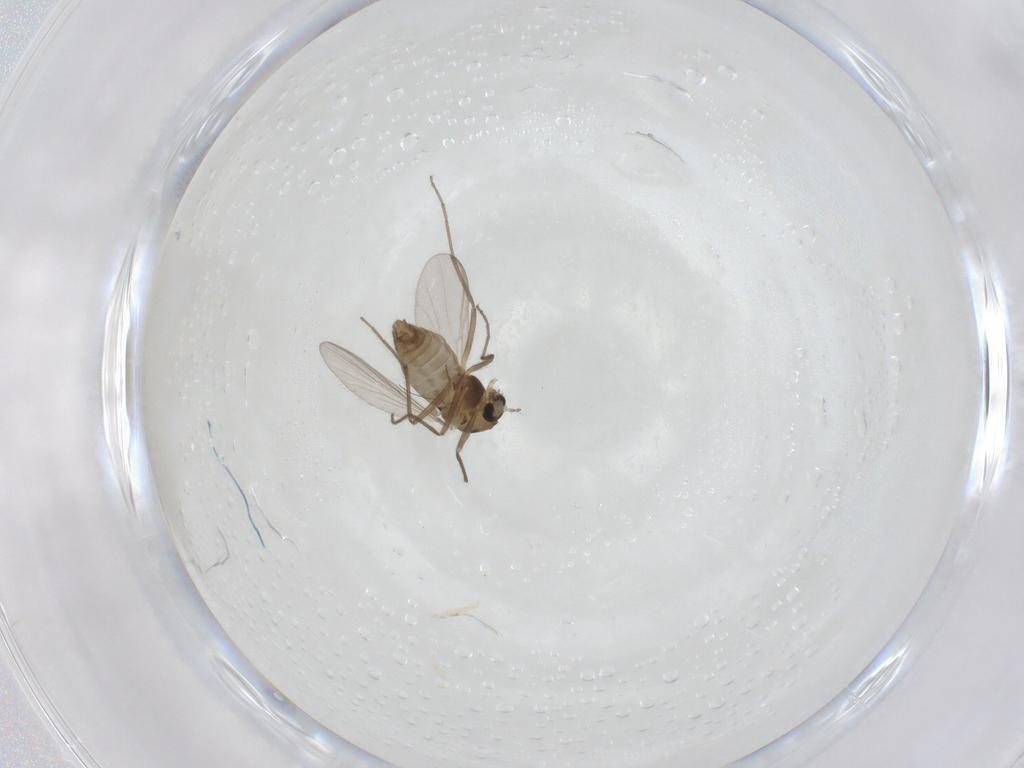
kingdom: Animalia
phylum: Arthropoda
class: Insecta
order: Diptera
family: Chironomidae
